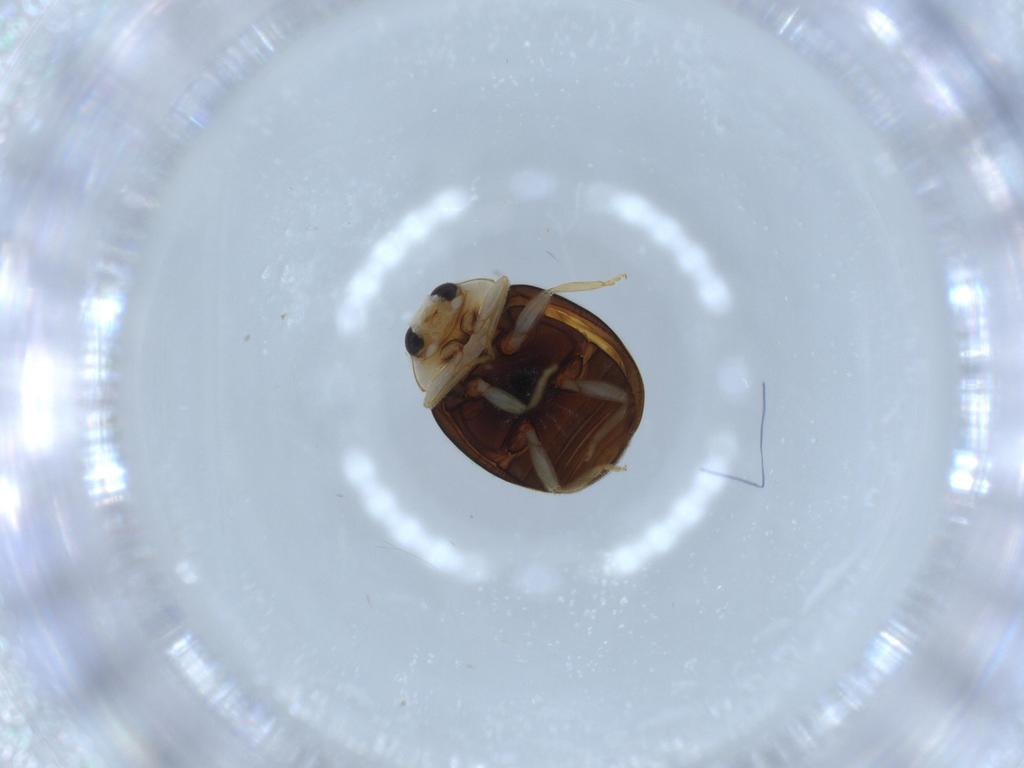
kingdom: Animalia
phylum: Arthropoda
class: Insecta
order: Coleoptera
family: Coccinellidae
